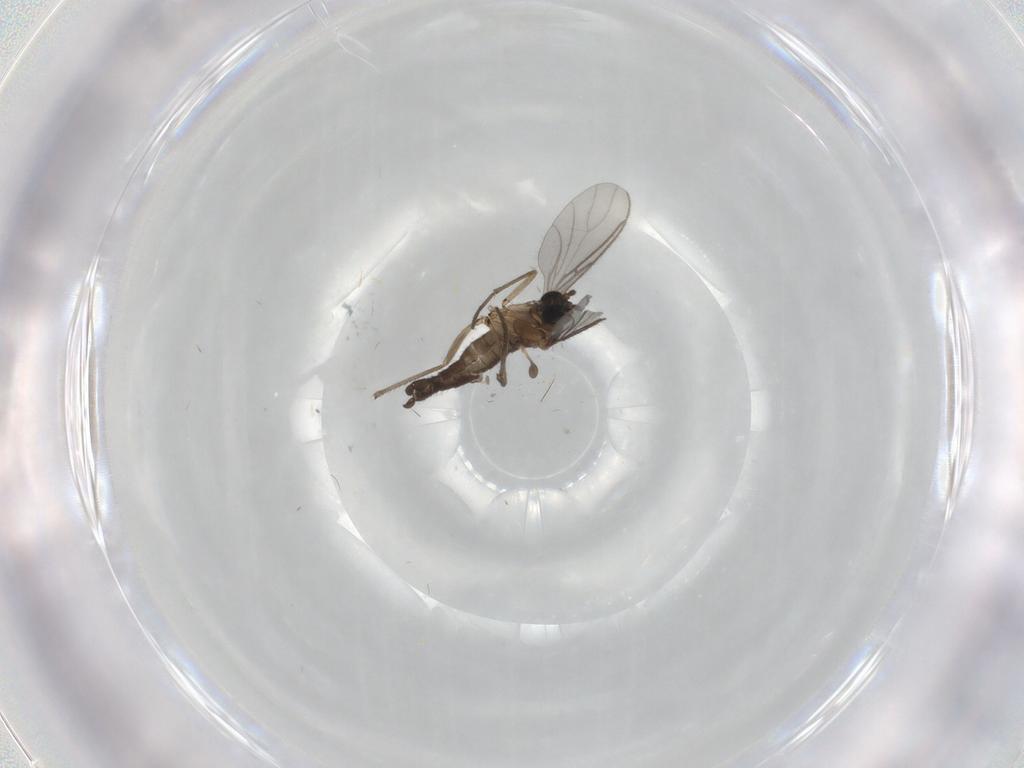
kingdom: Animalia
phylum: Arthropoda
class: Insecta
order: Diptera
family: Sciaridae
